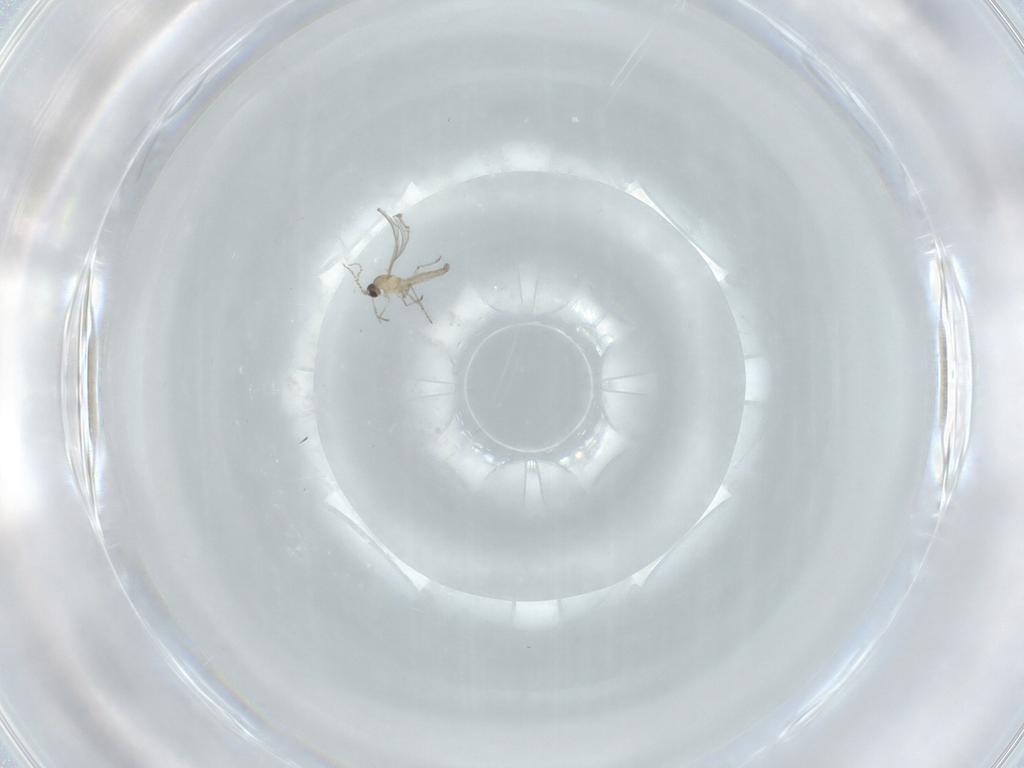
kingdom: Animalia
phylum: Arthropoda
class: Insecta
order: Diptera
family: Cecidomyiidae
